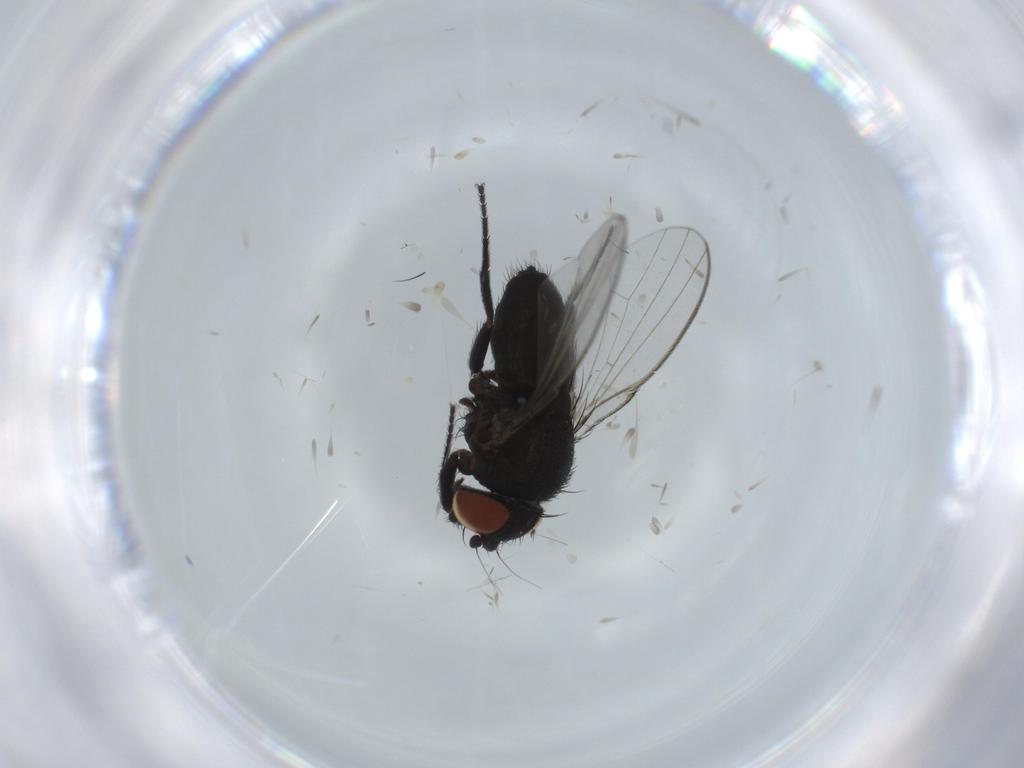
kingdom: Animalia
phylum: Arthropoda
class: Insecta
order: Diptera
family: Milichiidae
